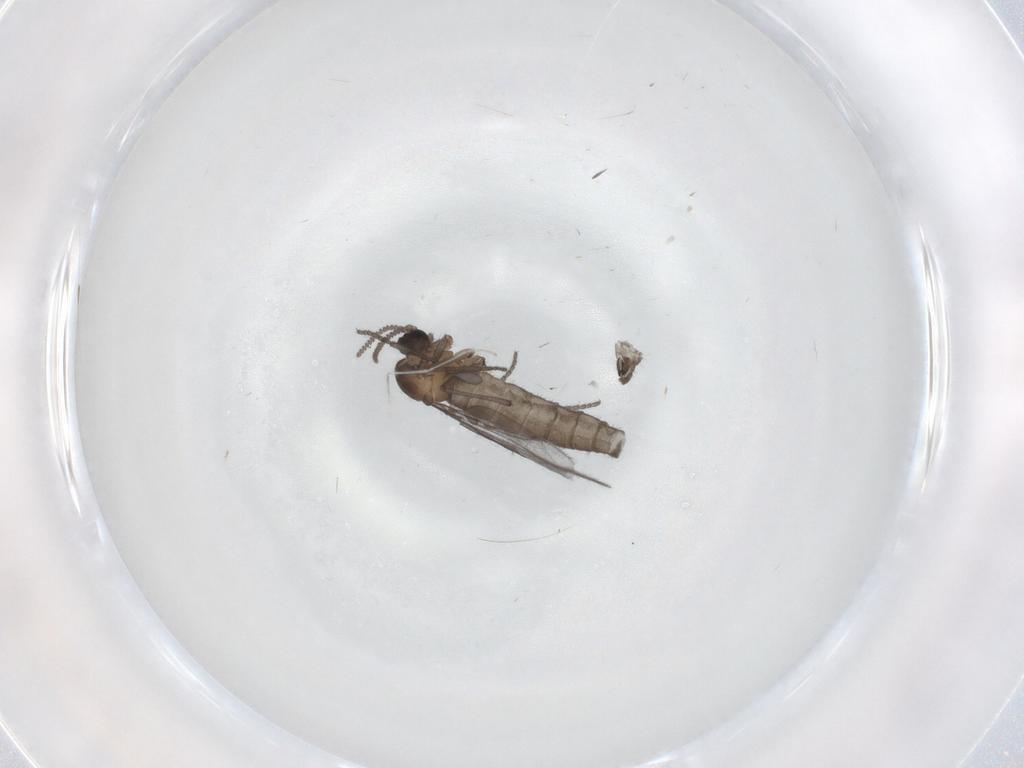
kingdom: Animalia
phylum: Arthropoda
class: Insecta
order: Diptera
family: Sciaridae
